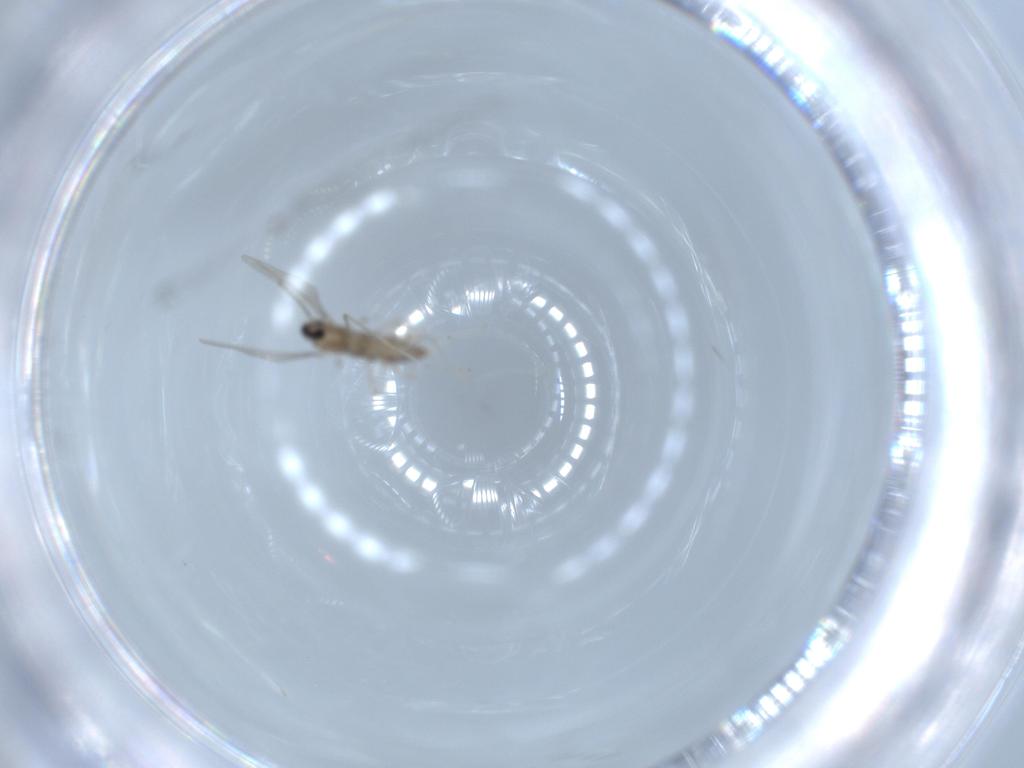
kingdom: Animalia
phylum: Arthropoda
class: Insecta
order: Diptera
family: Cecidomyiidae
